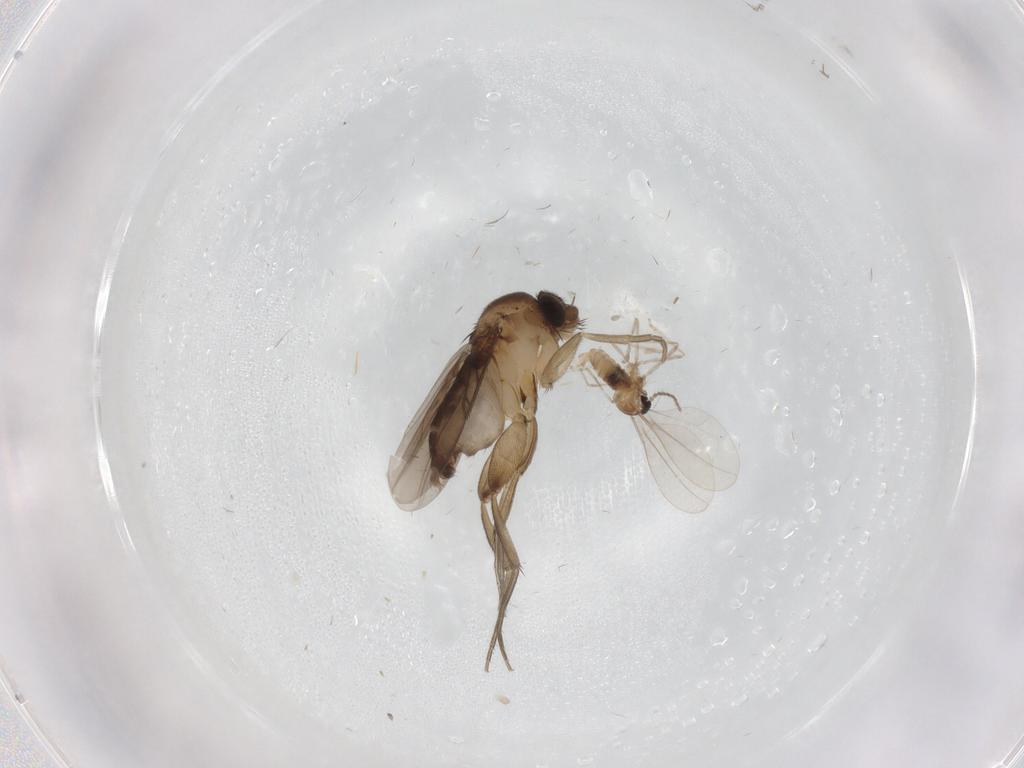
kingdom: Animalia
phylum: Arthropoda
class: Insecta
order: Diptera
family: Phoridae
